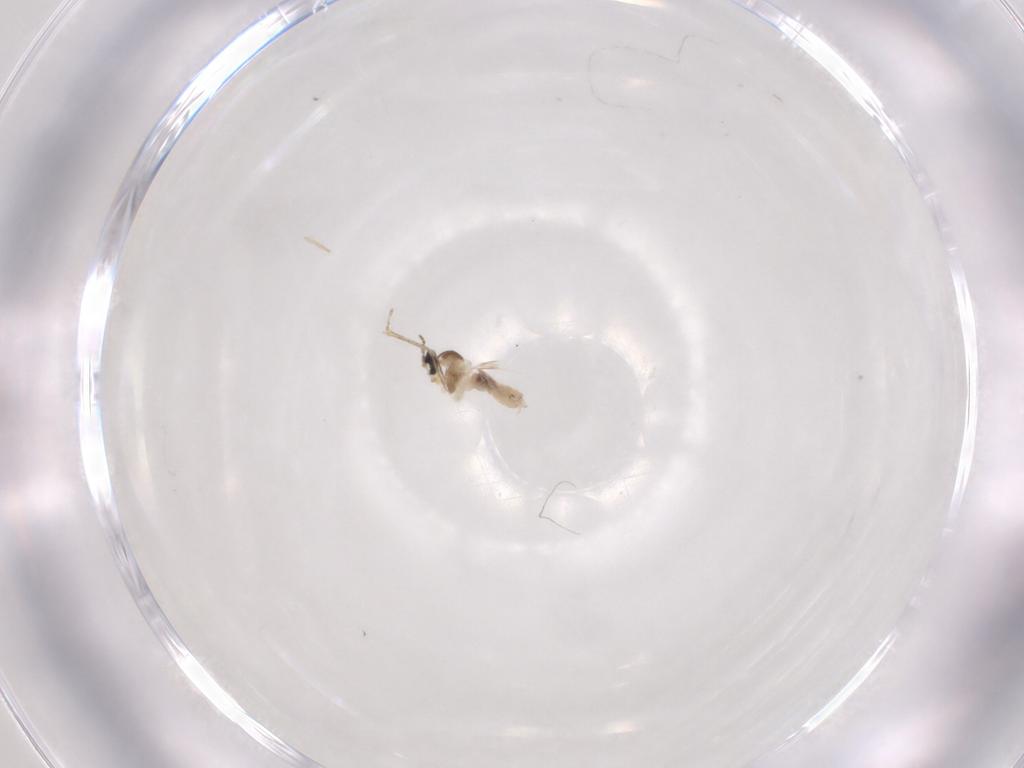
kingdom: Animalia
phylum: Arthropoda
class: Insecta
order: Diptera
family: Cecidomyiidae
